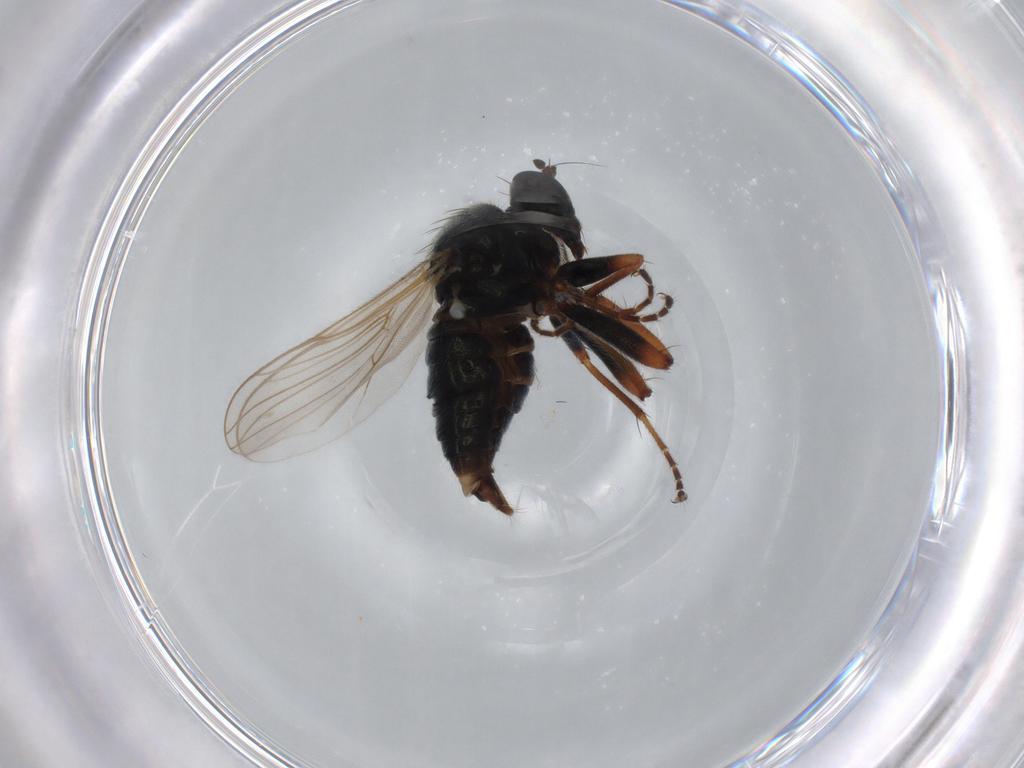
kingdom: Animalia
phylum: Arthropoda
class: Insecta
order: Diptera
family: Hybotidae
